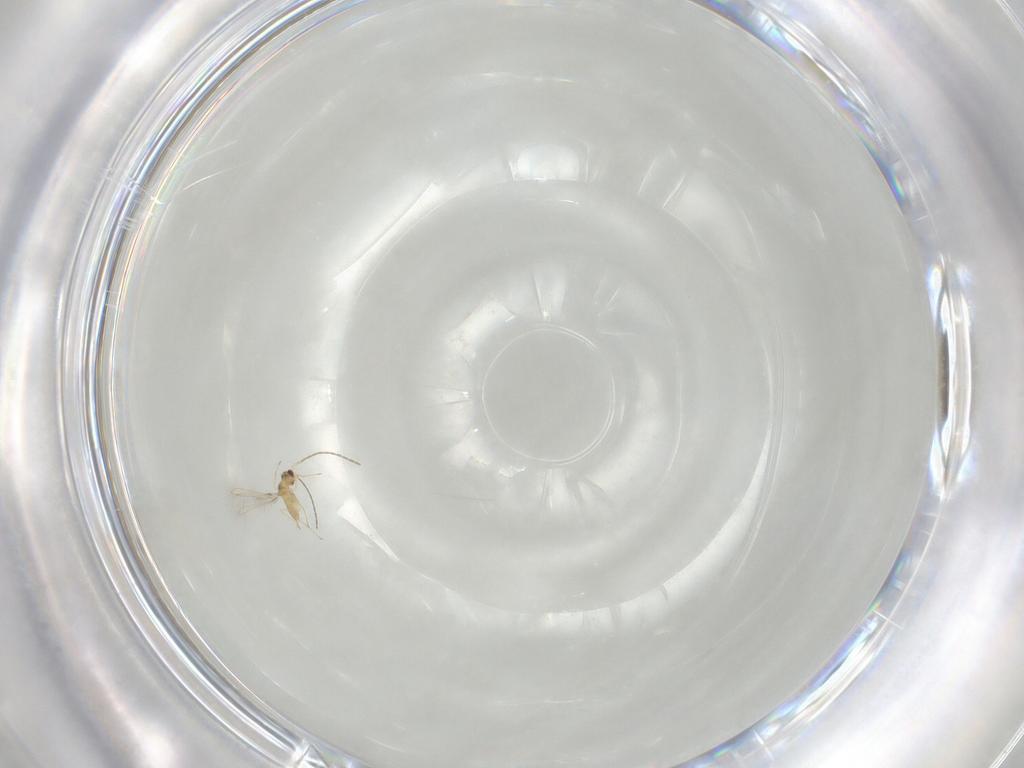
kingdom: Animalia
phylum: Arthropoda
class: Insecta
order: Hymenoptera
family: Mymaridae
